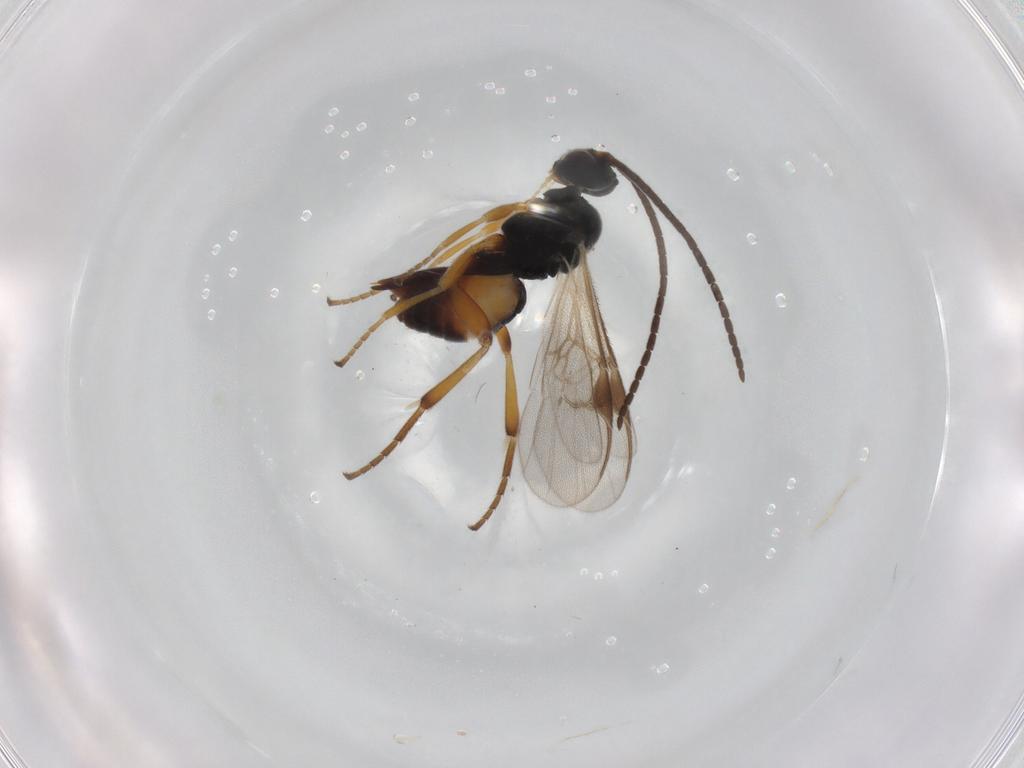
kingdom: Animalia
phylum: Arthropoda
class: Insecta
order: Hymenoptera
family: Braconidae
